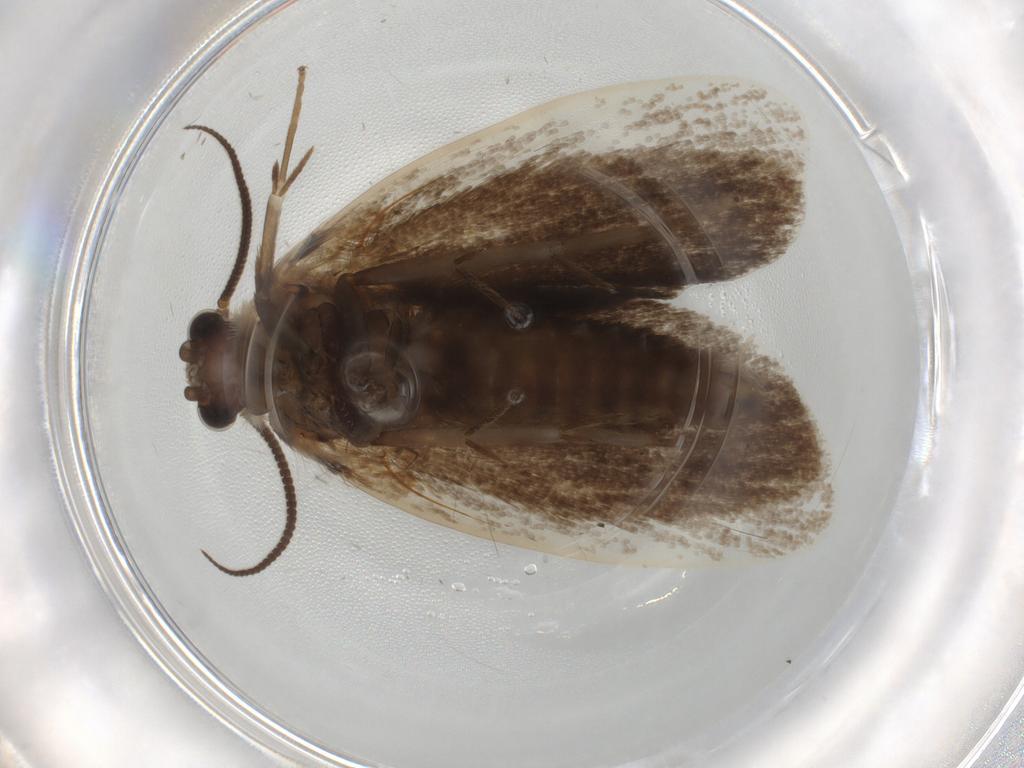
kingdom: Animalia
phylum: Arthropoda
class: Insecta
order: Lepidoptera
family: Tineidae
